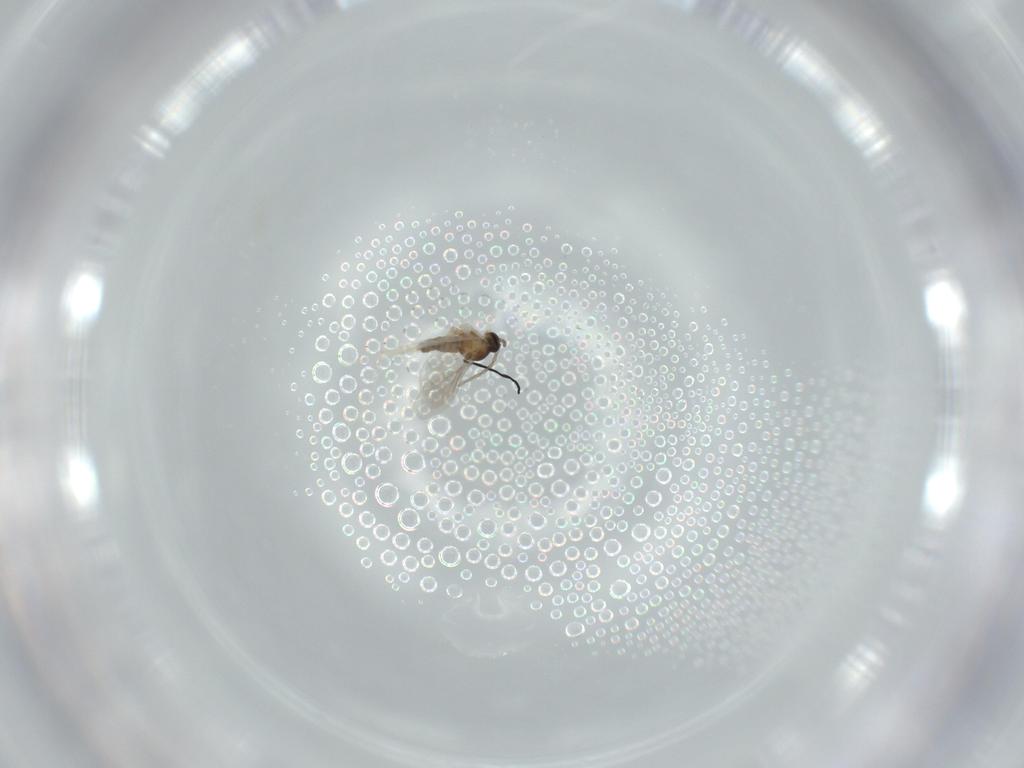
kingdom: Animalia
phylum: Arthropoda
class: Insecta
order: Diptera
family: Cecidomyiidae
